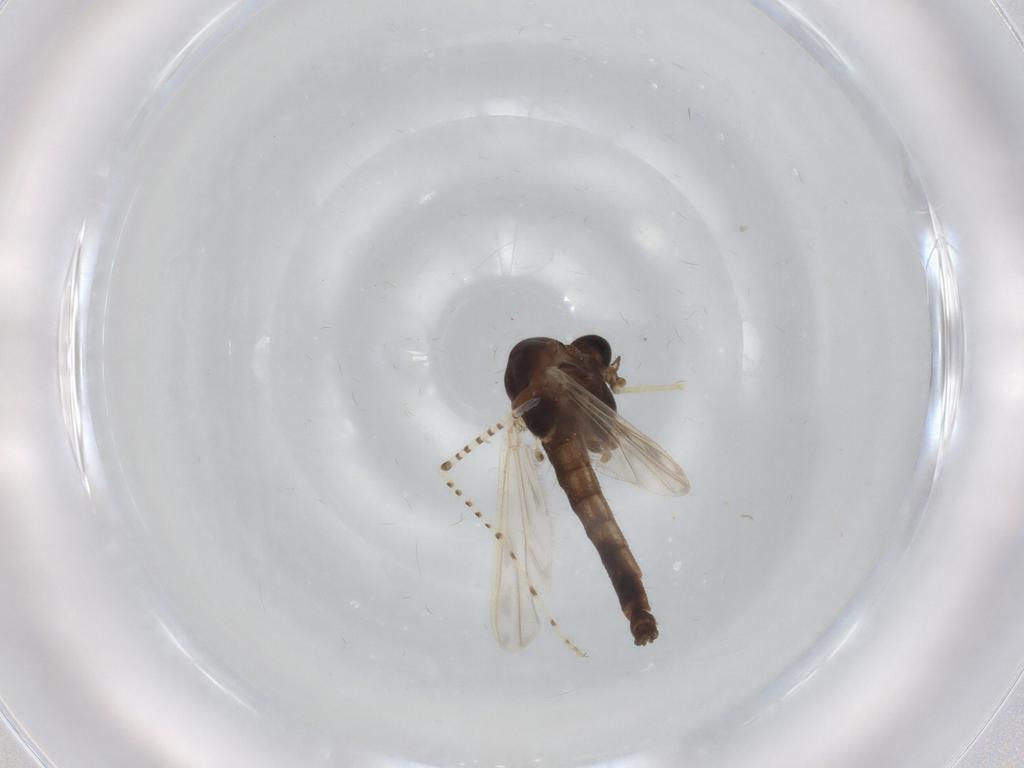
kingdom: Animalia
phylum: Arthropoda
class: Insecta
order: Diptera
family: Chironomidae
